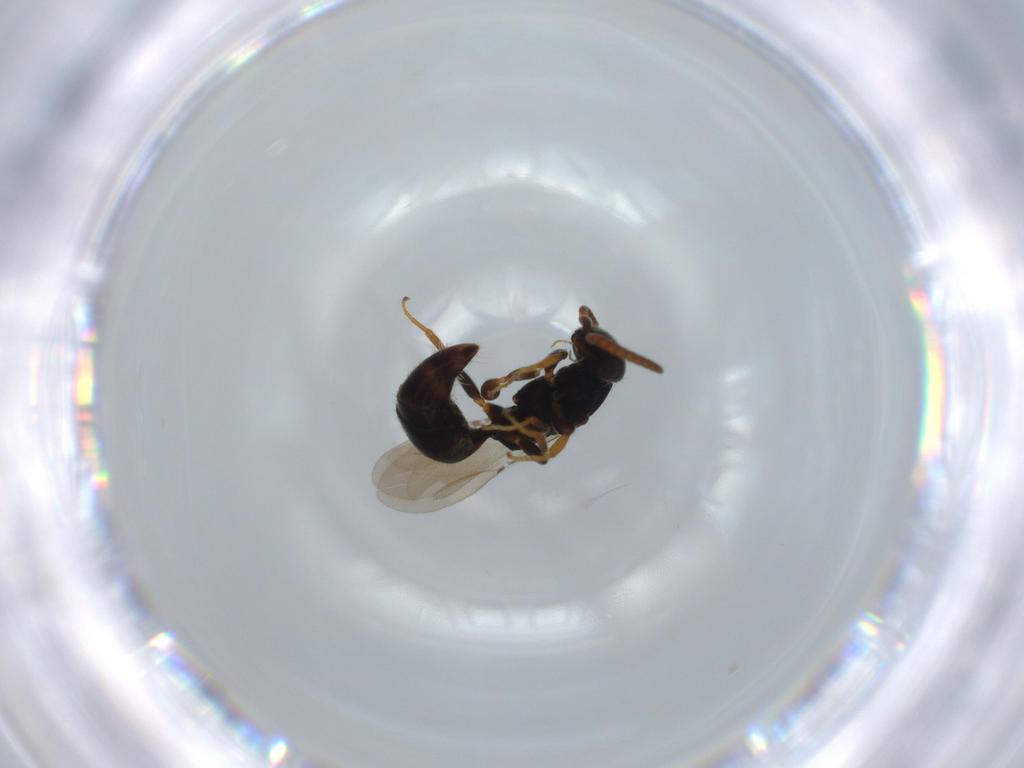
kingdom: Animalia
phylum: Arthropoda
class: Insecta
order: Hymenoptera
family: Bethylidae
